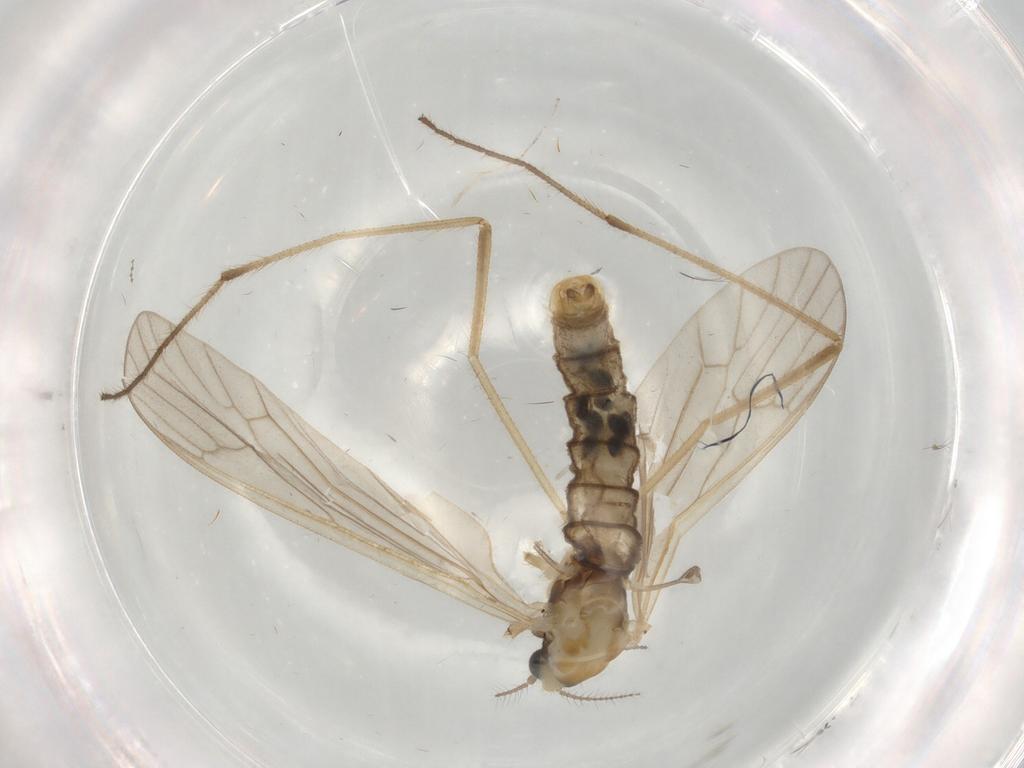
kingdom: Animalia
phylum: Arthropoda
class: Insecta
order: Diptera
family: Limoniidae
